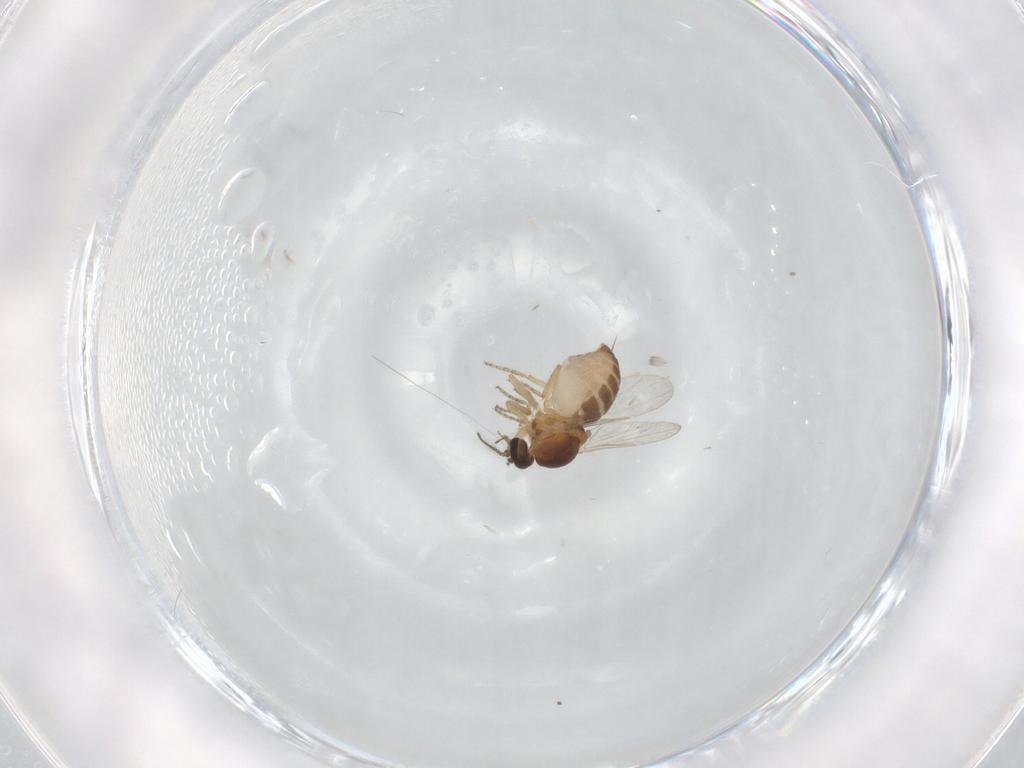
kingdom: Animalia
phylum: Arthropoda
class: Insecta
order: Diptera
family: Ceratopogonidae
